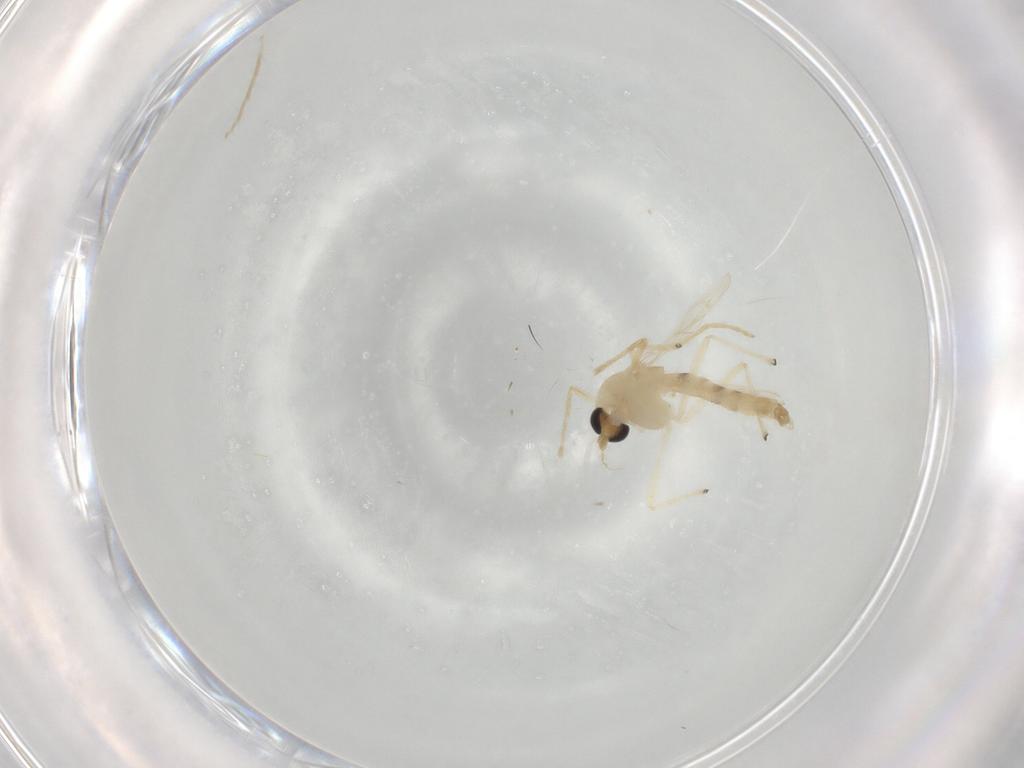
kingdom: Animalia
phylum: Arthropoda
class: Insecta
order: Diptera
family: Chironomidae
